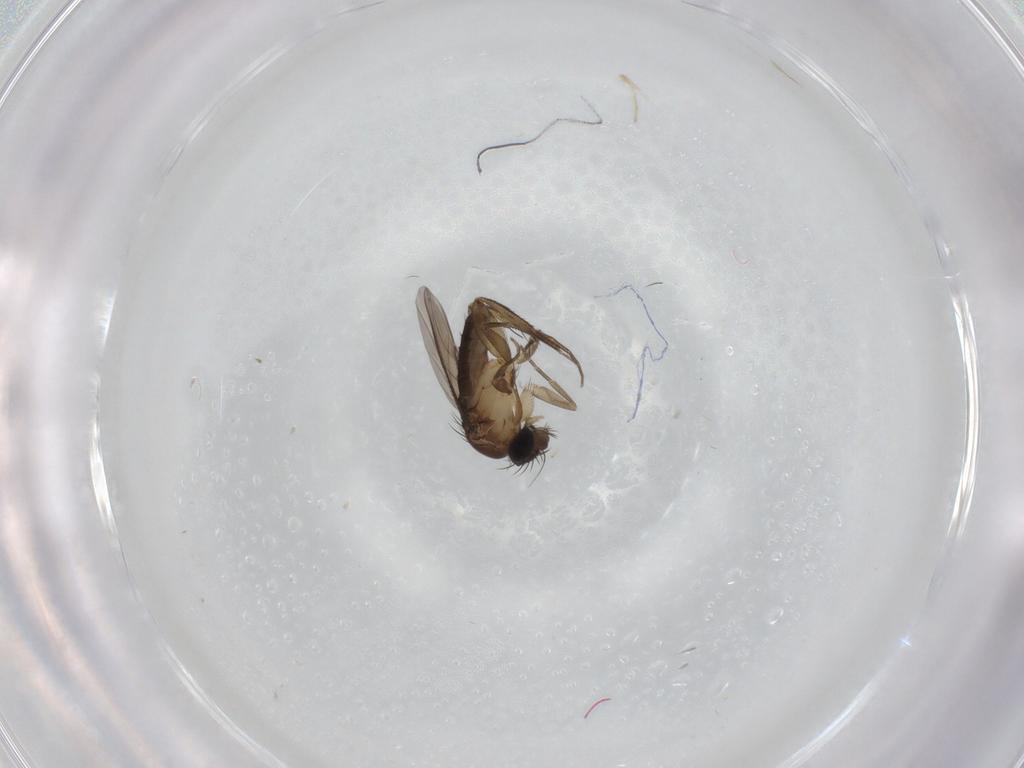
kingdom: Animalia
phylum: Arthropoda
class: Insecta
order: Diptera
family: Phoridae
